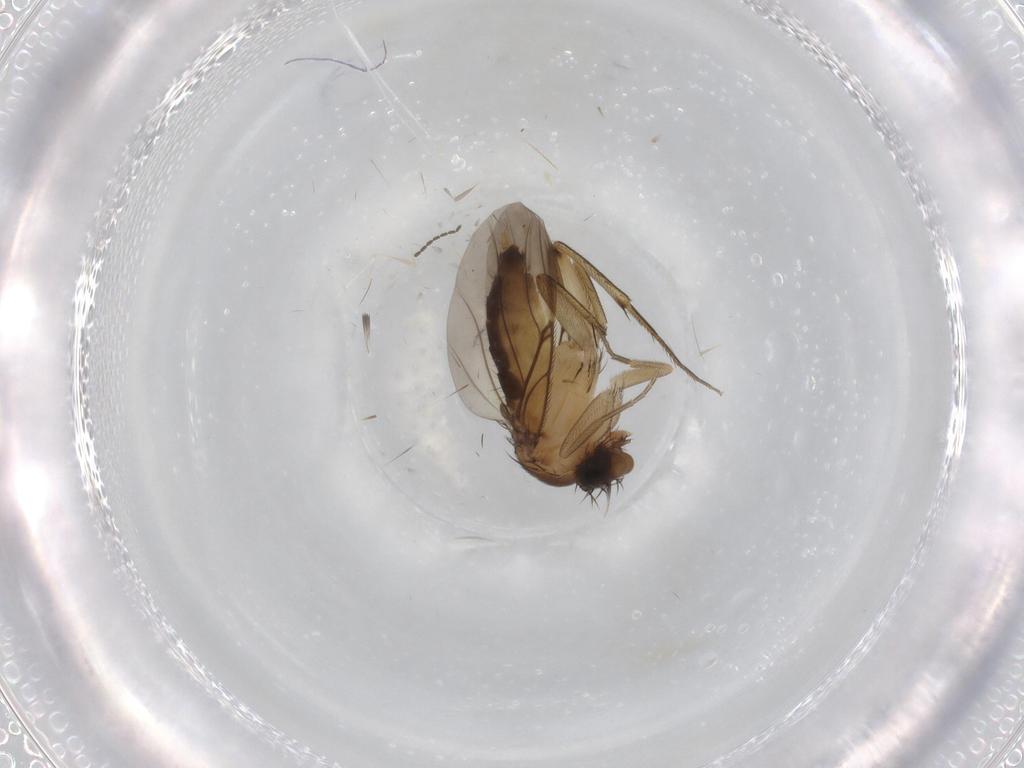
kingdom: Animalia
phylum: Arthropoda
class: Insecta
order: Diptera
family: Phoridae
